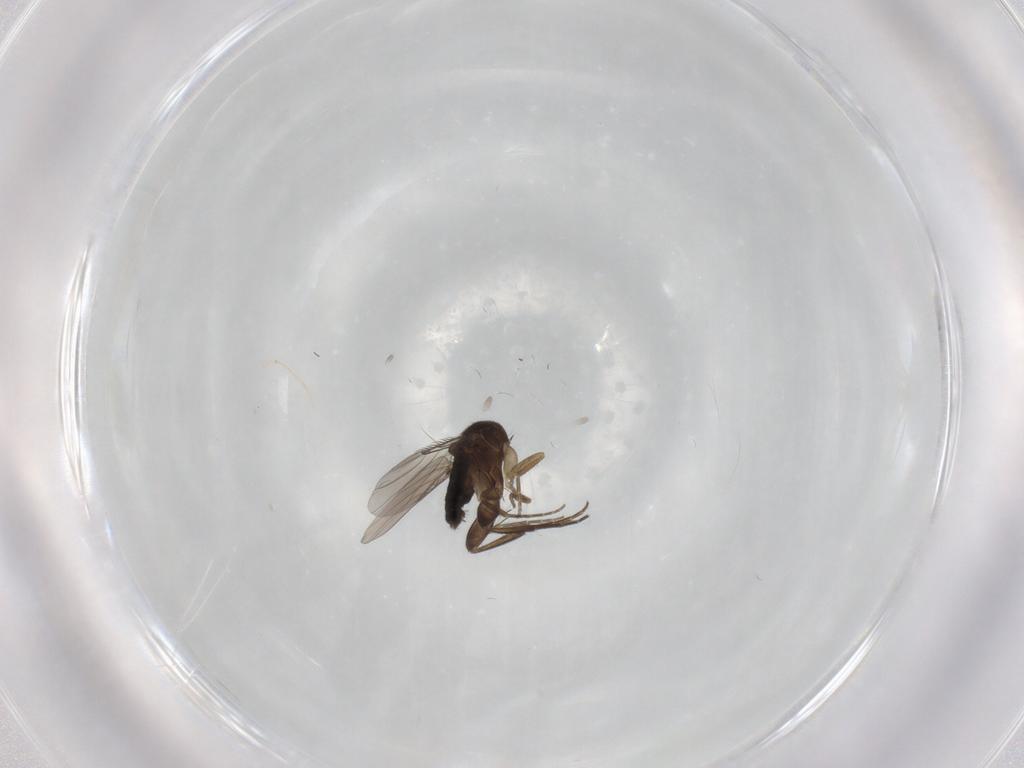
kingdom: Animalia
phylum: Arthropoda
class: Insecta
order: Diptera
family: Phoridae
